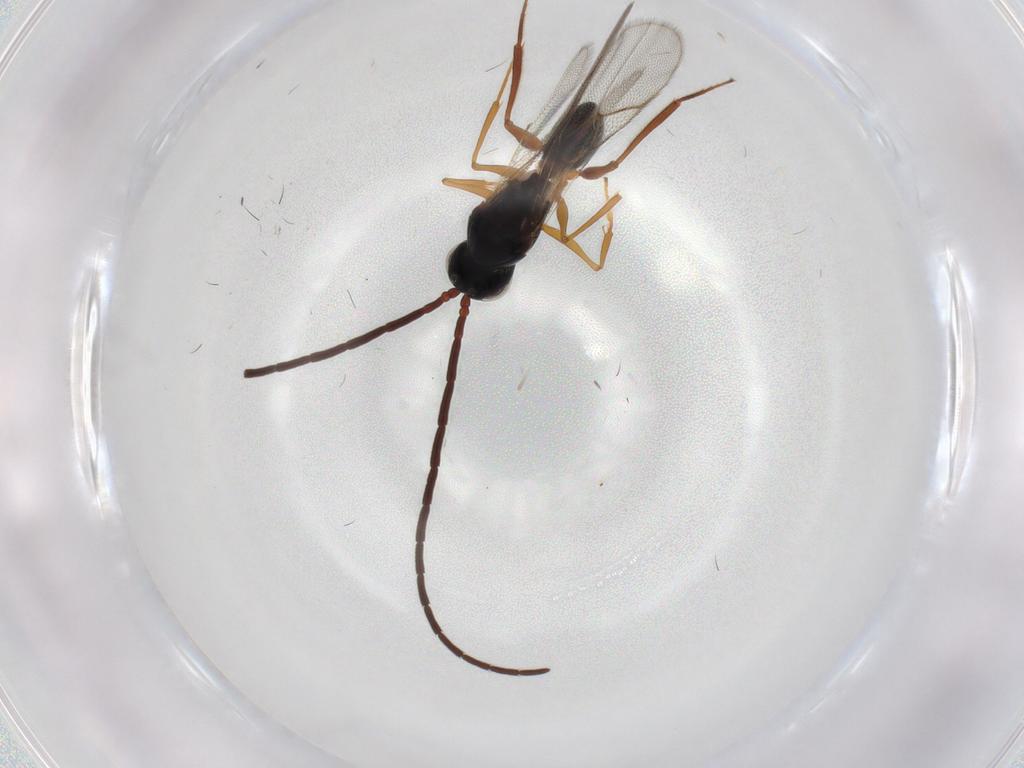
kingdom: Animalia
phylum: Arthropoda
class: Insecta
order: Hymenoptera
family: Figitidae
